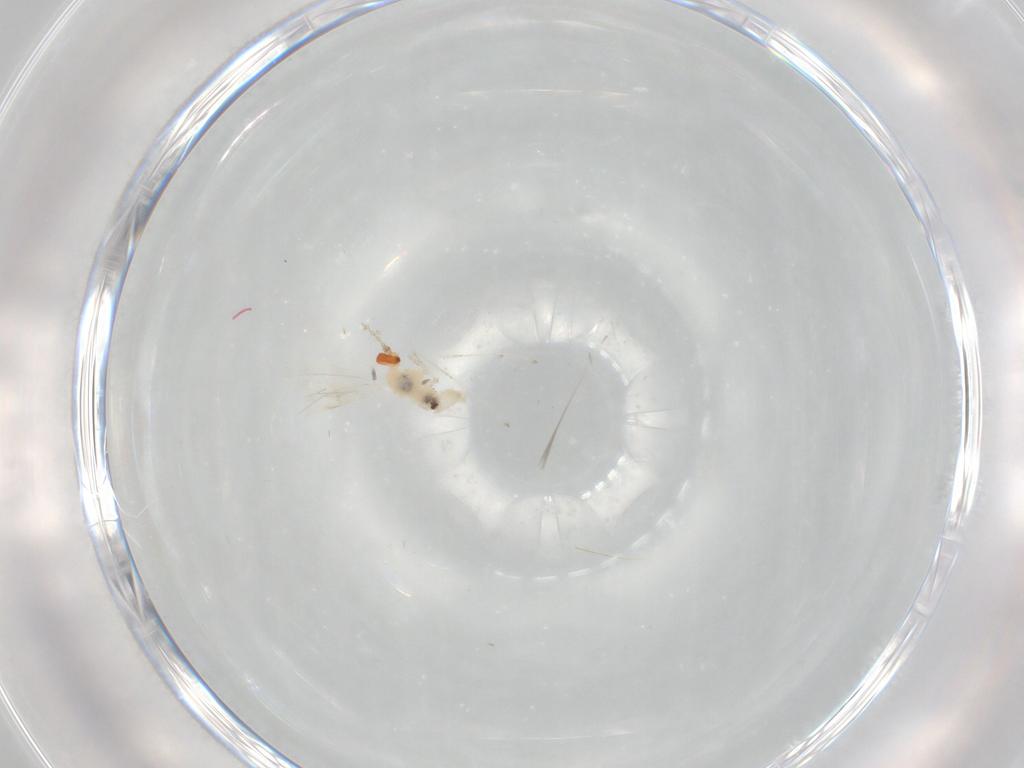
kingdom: Animalia
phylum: Arthropoda
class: Insecta
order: Diptera
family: Cecidomyiidae
